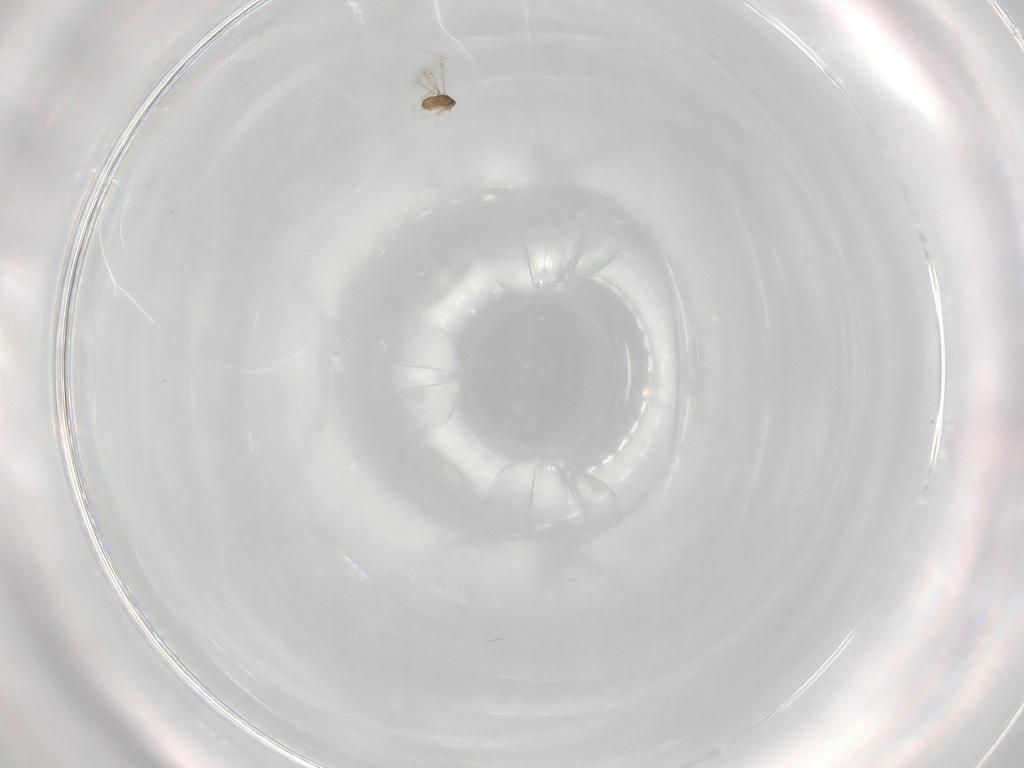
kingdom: Animalia
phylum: Arthropoda
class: Insecta
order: Hymenoptera
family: Mymaridae
